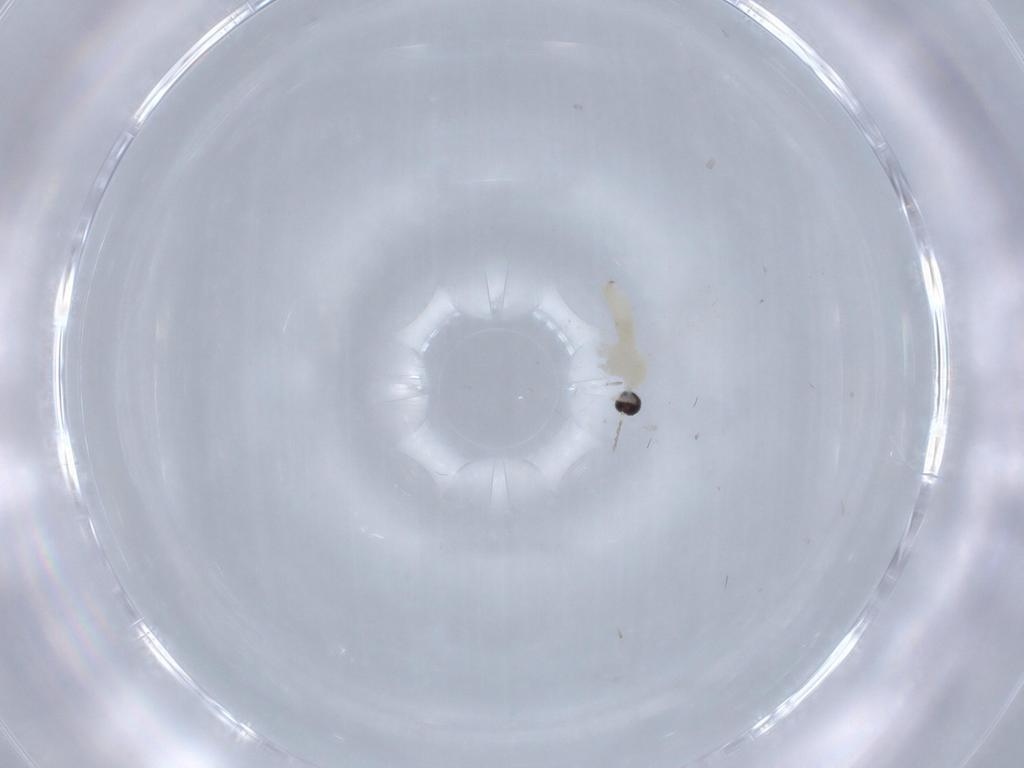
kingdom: Animalia
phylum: Arthropoda
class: Insecta
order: Diptera
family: Cecidomyiidae
